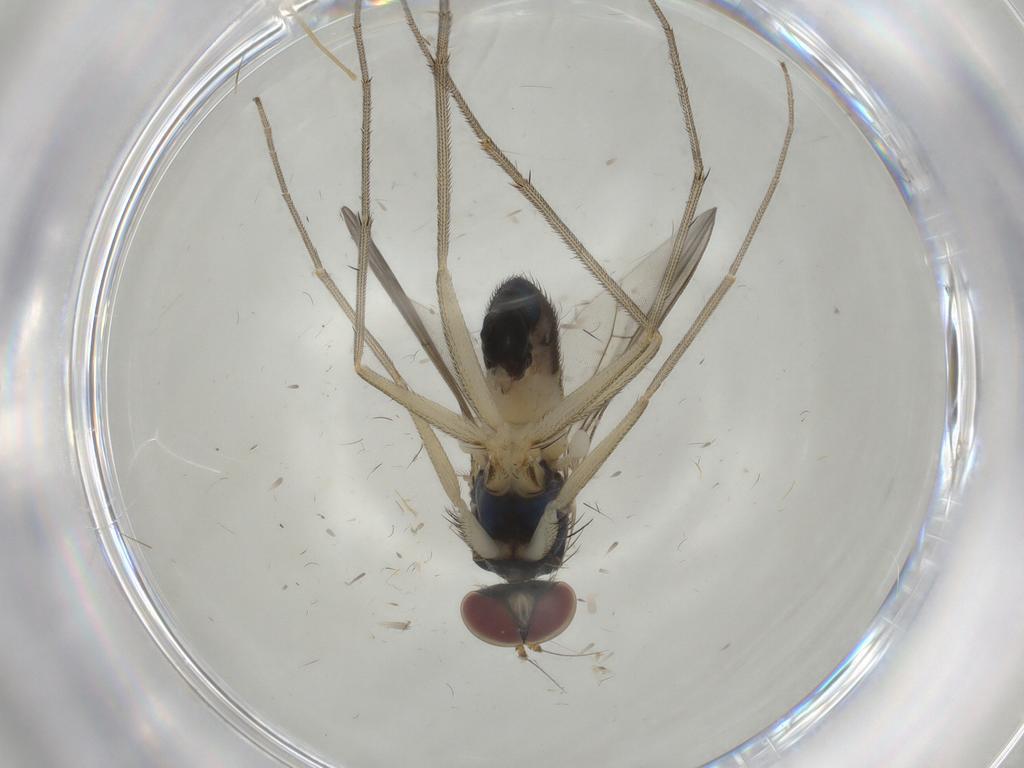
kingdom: Animalia
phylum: Arthropoda
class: Insecta
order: Diptera
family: Dolichopodidae
